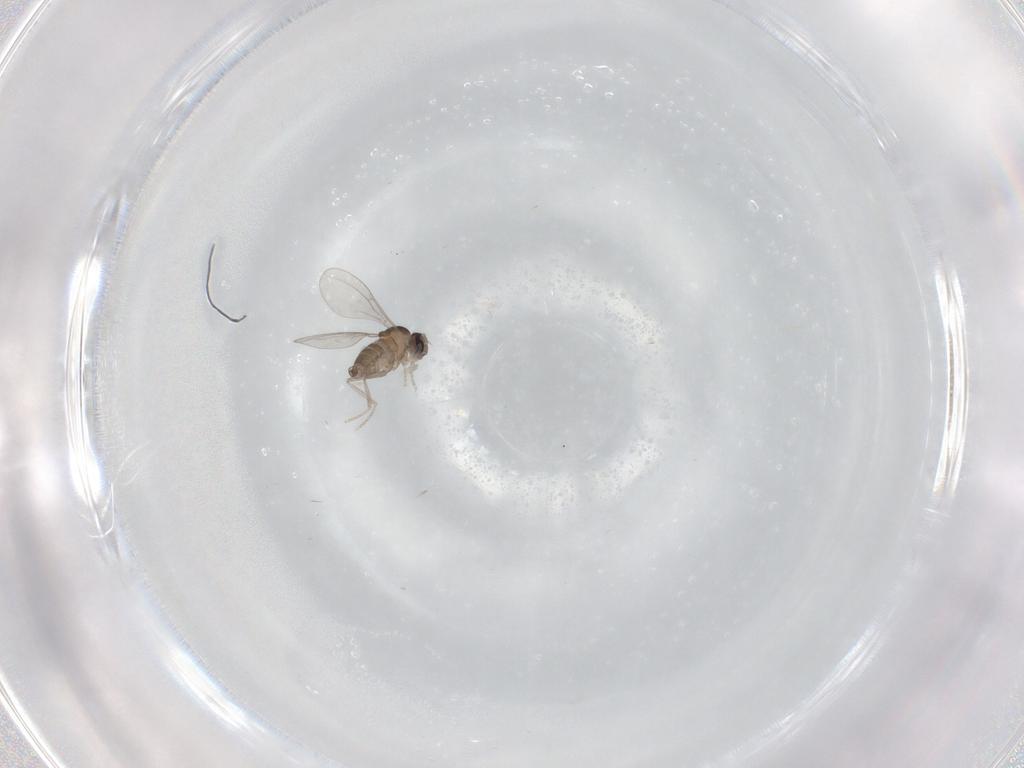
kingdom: Animalia
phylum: Arthropoda
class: Insecta
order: Diptera
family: Cecidomyiidae
